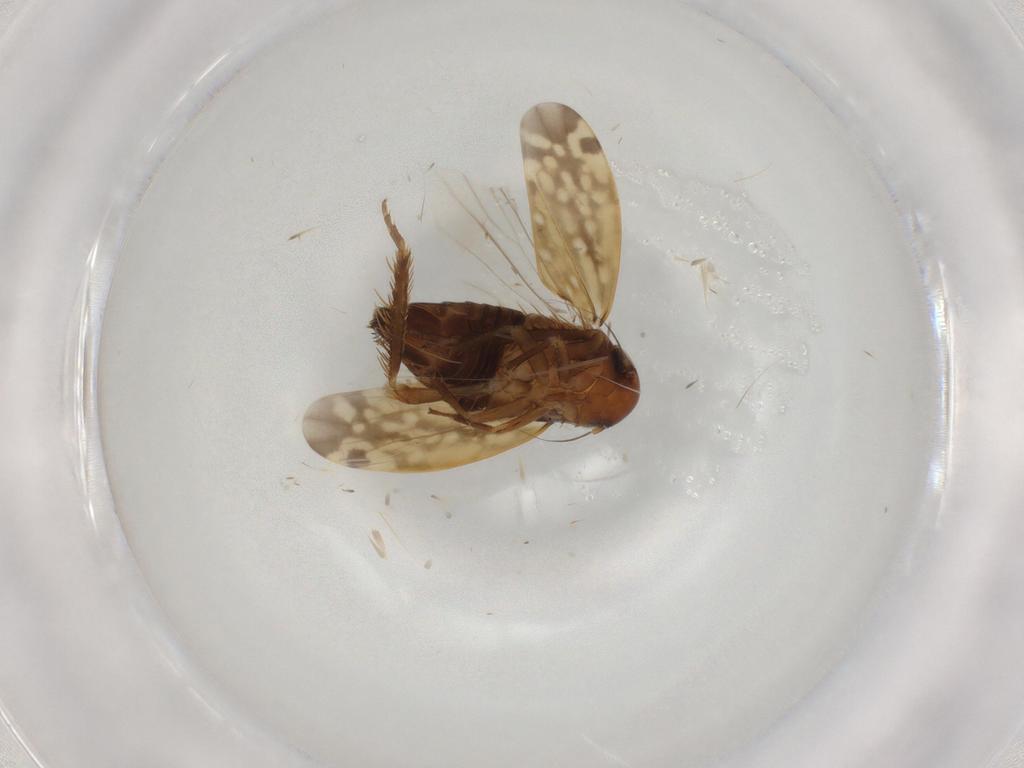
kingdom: Animalia
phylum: Arthropoda
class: Insecta
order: Hemiptera
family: Cicadellidae
